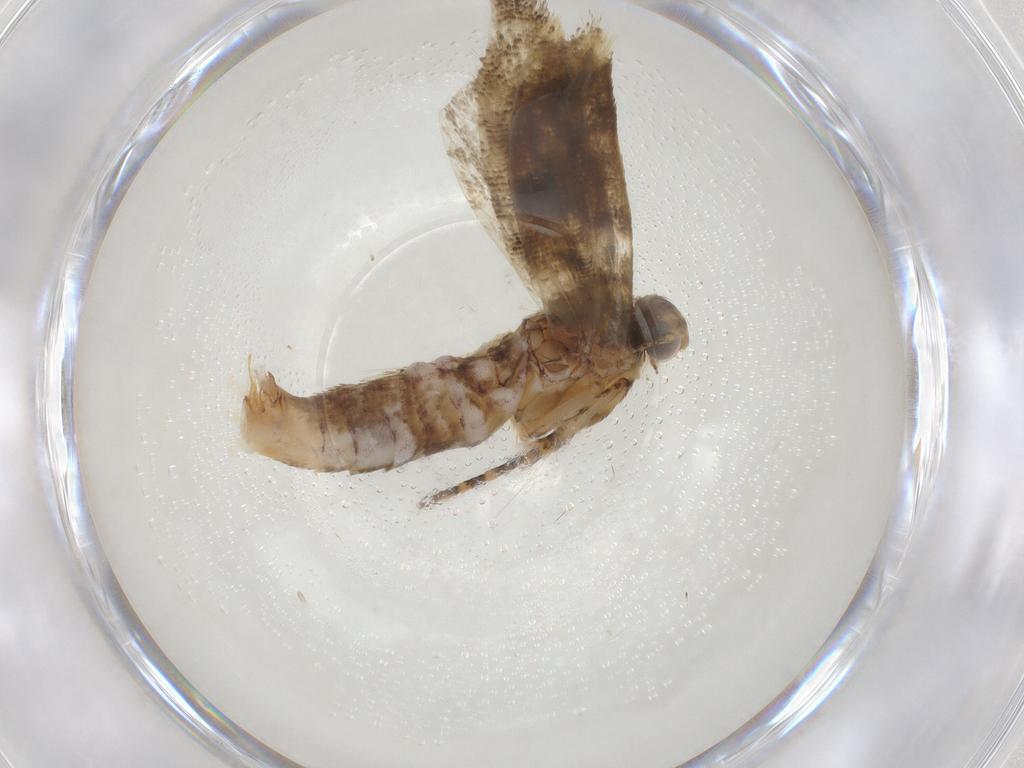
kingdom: Animalia
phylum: Arthropoda
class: Insecta
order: Lepidoptera
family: Gelechiidae
